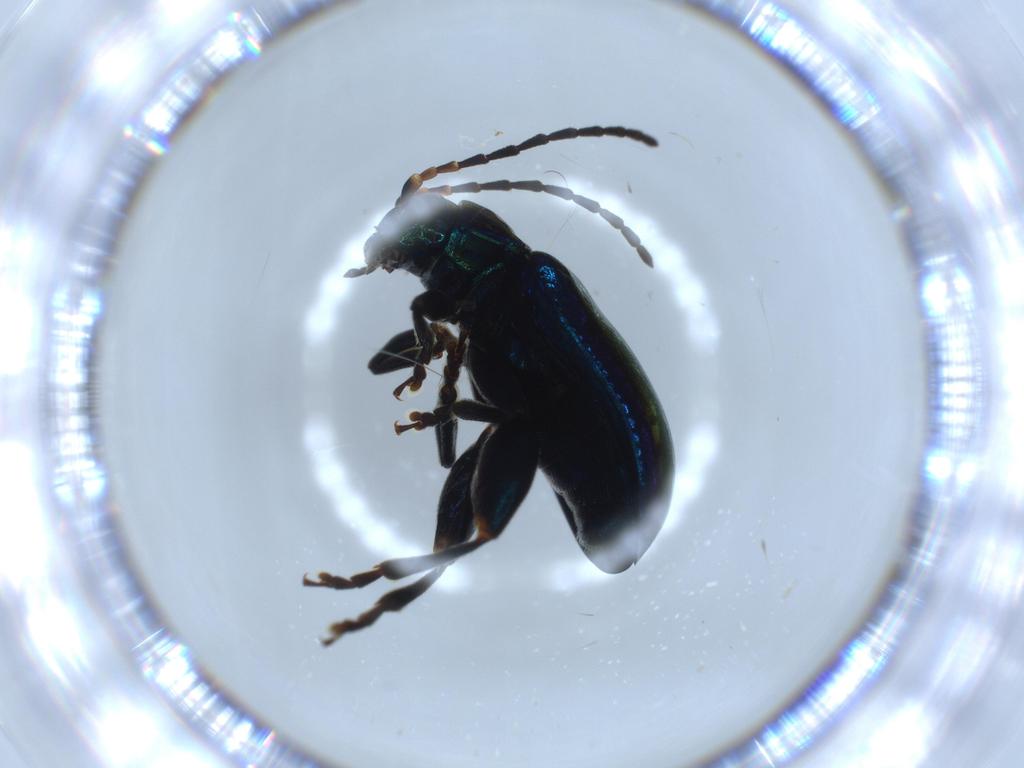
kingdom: Animalia
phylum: Arthropoda
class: Insecta
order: Coleoptera
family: Chrysomelidae
